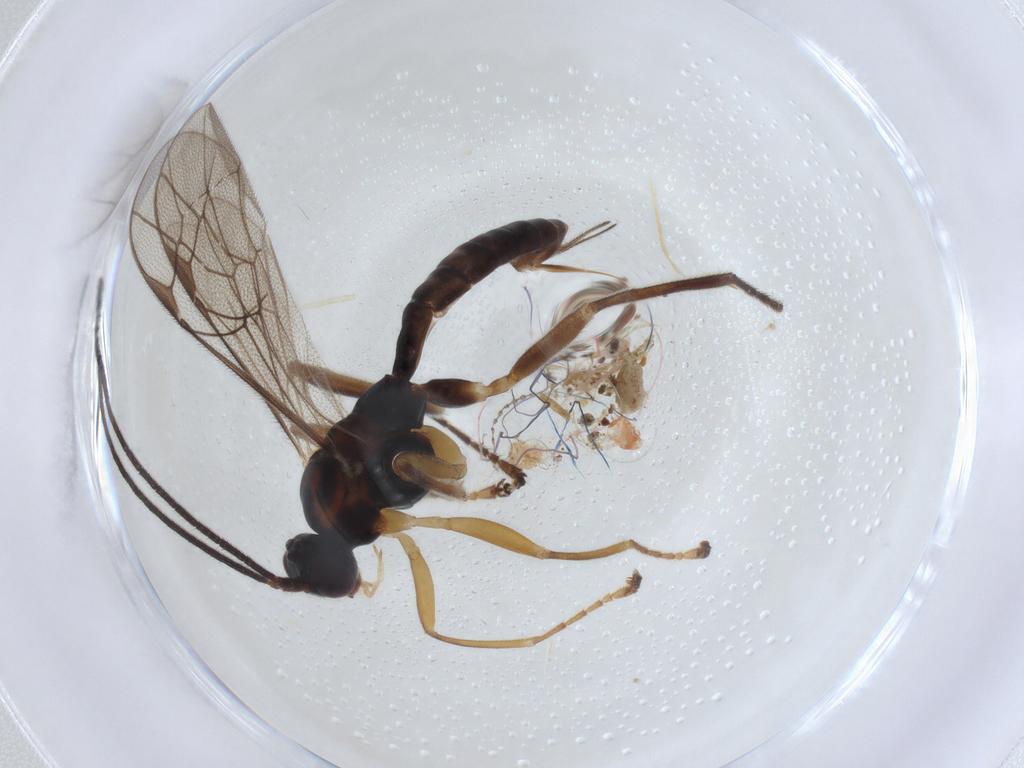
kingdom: Animalia
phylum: Arthropoda
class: Insecta
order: Hymenoptera
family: Ichneumonidae
